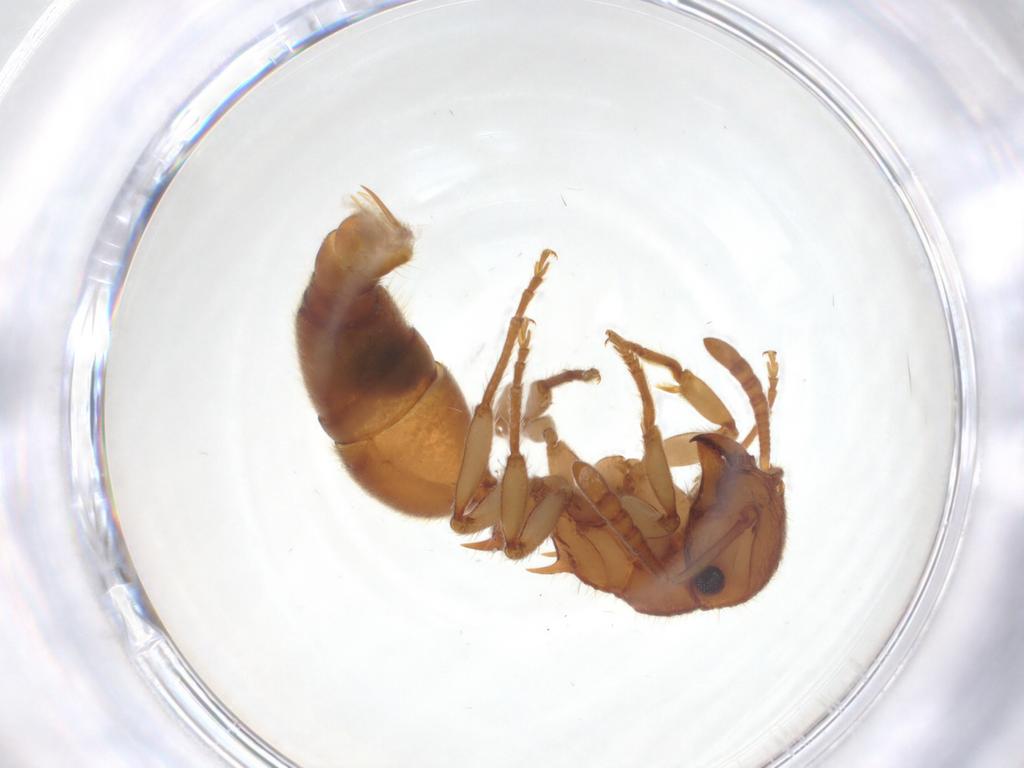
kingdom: Animalia
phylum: Arthropoda
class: Insecta
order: Hymenoptera
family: Formicidae
